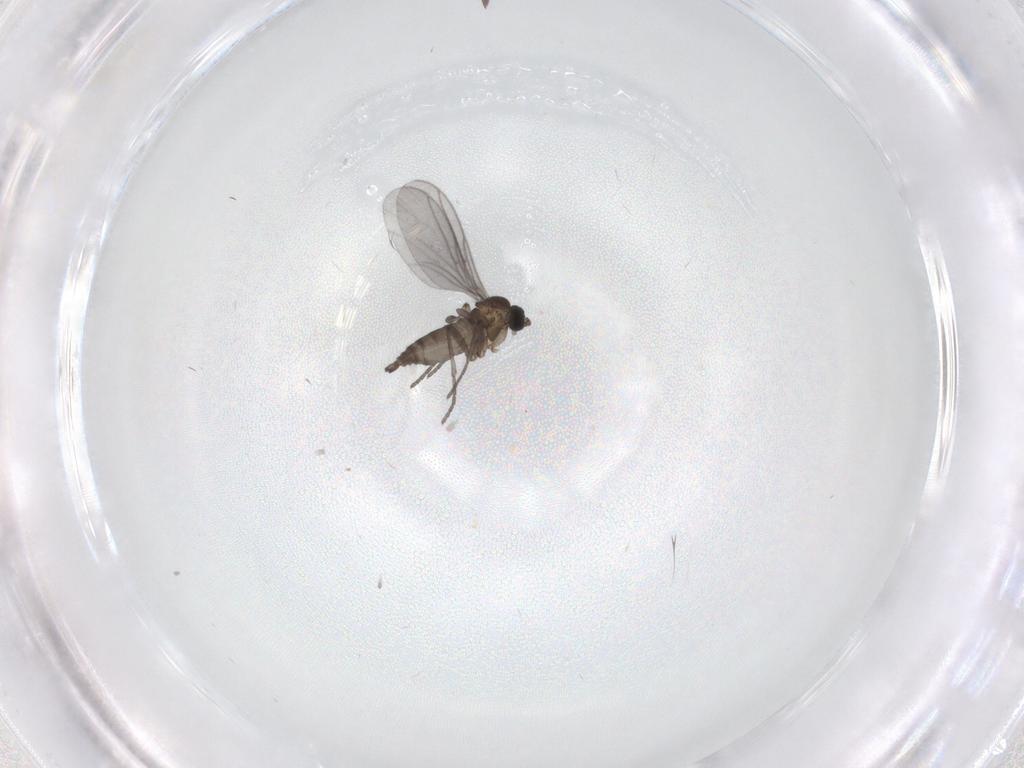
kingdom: Animalia
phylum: Arthropoda
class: Insecta
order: Diptera
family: Sciaridae
